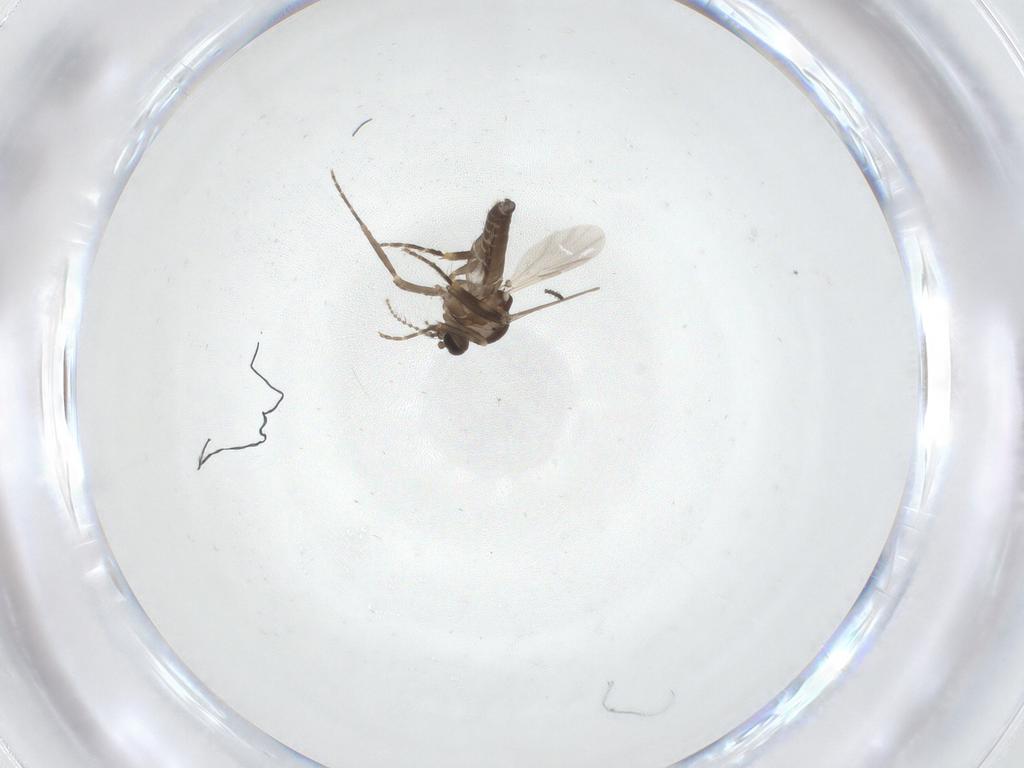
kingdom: Animalia
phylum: Arthropoda
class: Insecta
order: Diptera
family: Ceratopogonidae
